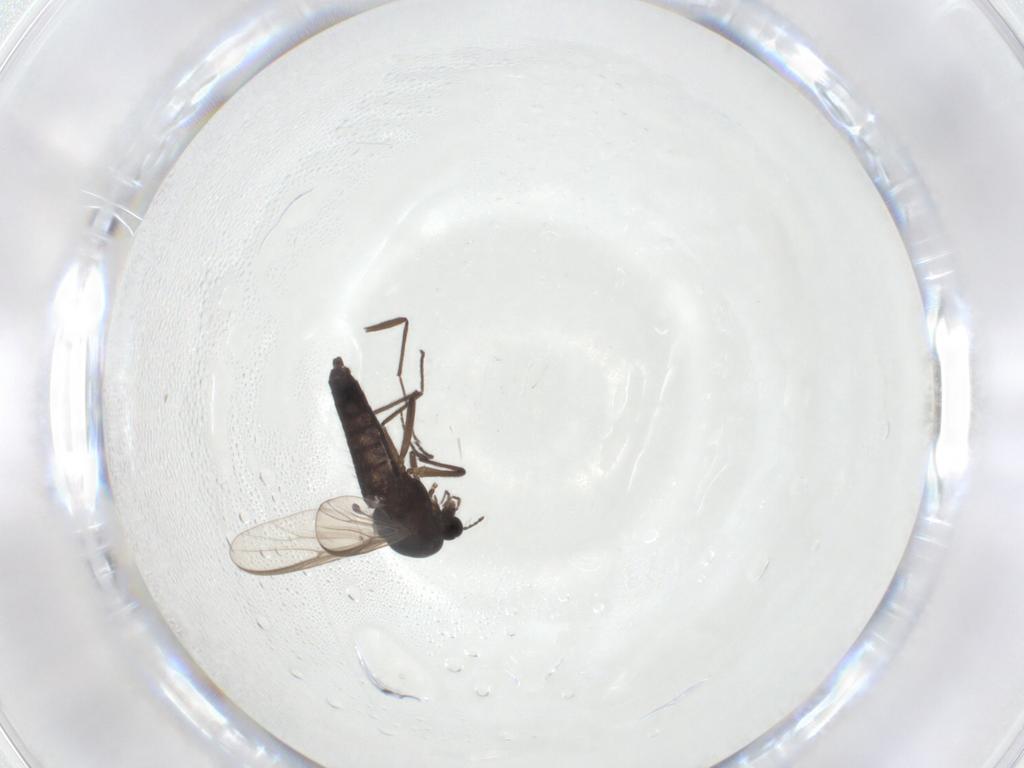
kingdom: Animalia
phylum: Arthropoda
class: Insecta
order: Diptera
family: Chironomidae
